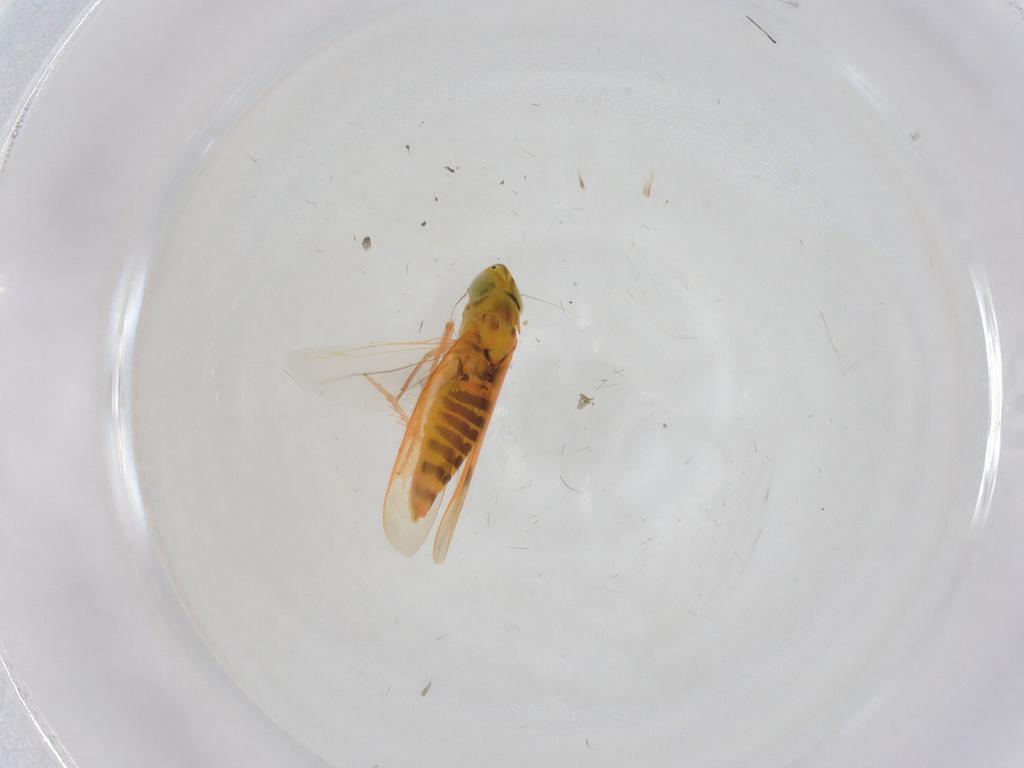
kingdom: Animalia
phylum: Arthropoda
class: Insecta
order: Hemiptera
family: Cicadellidae
